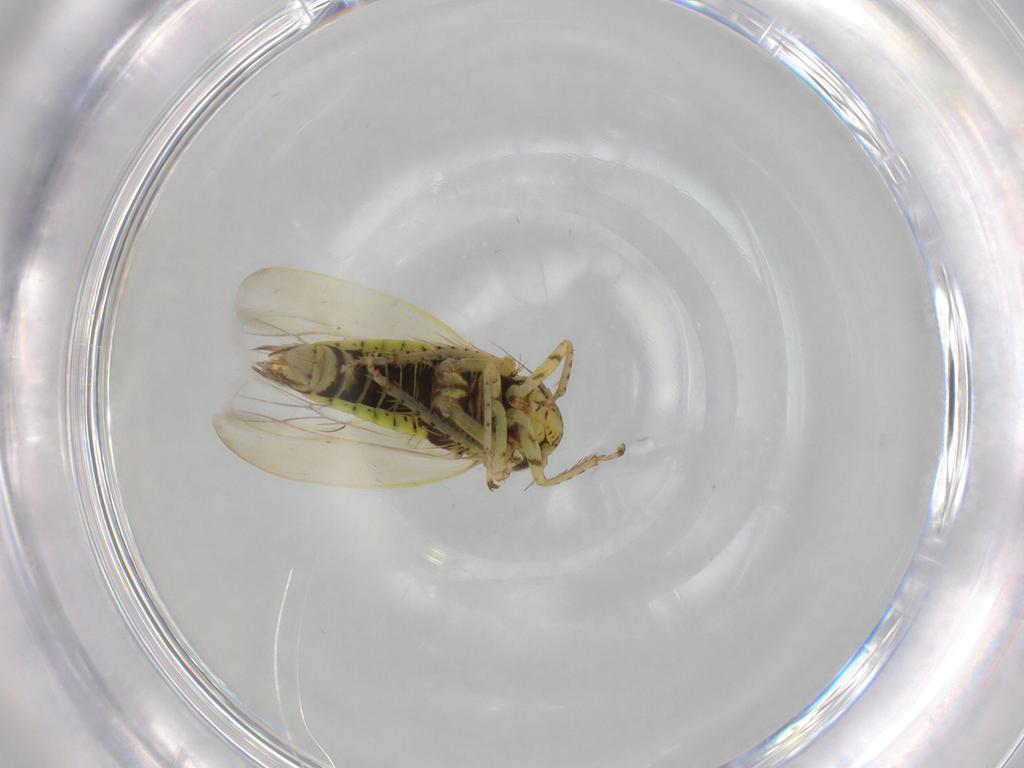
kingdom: Animalia
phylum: Arthropoda
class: Insecta
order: Hemiptera
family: Cicadellidae
